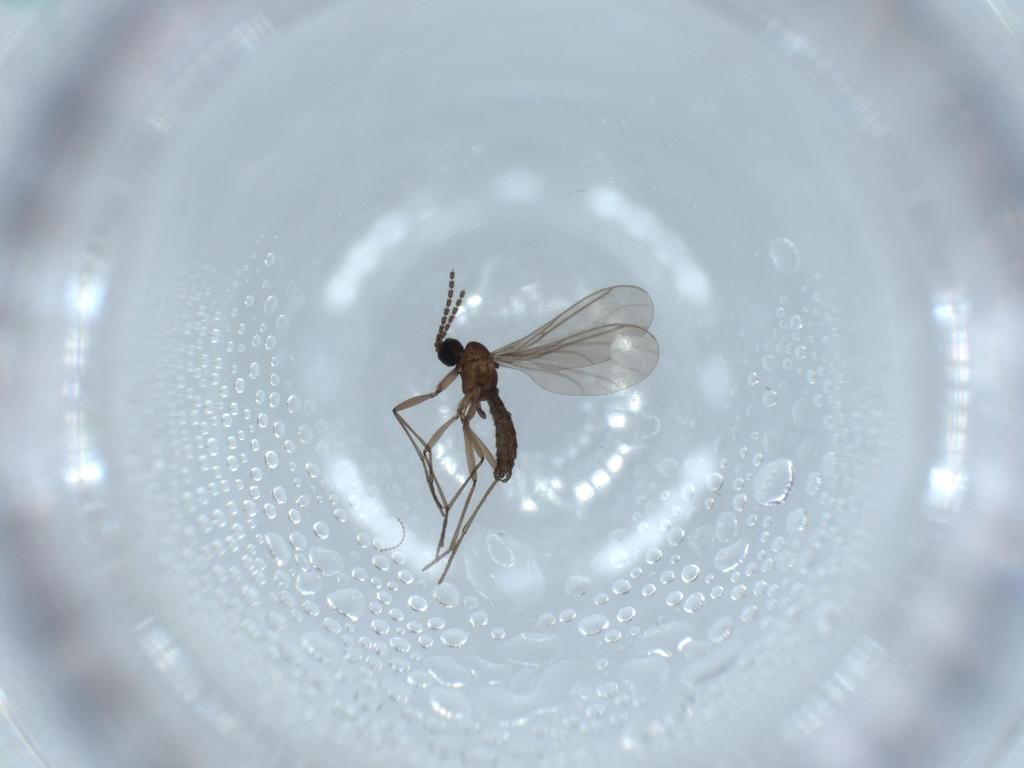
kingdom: Animalia
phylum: Arthropoda
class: Insecta
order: Diptera
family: Sciaridae
